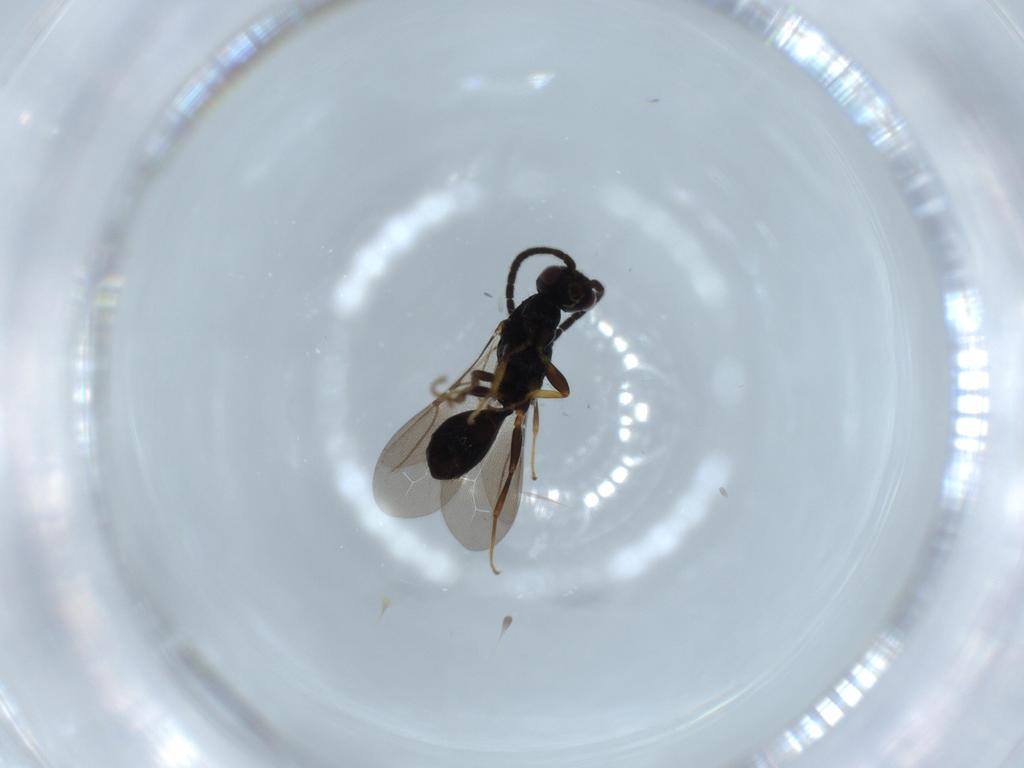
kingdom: Animalia
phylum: Arthropoda
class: Insecta
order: Hymenoptera
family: Bethylidae
